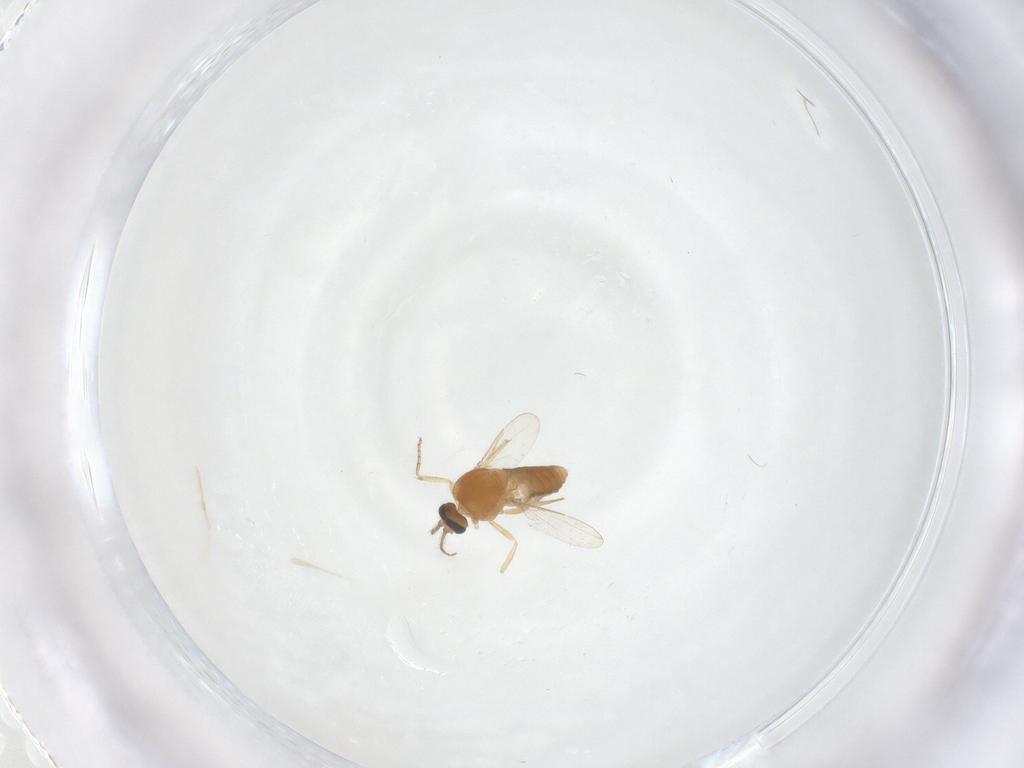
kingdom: Animalia
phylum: Arthropoda
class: Insecta
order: Diptera
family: Ceratopogonidae
